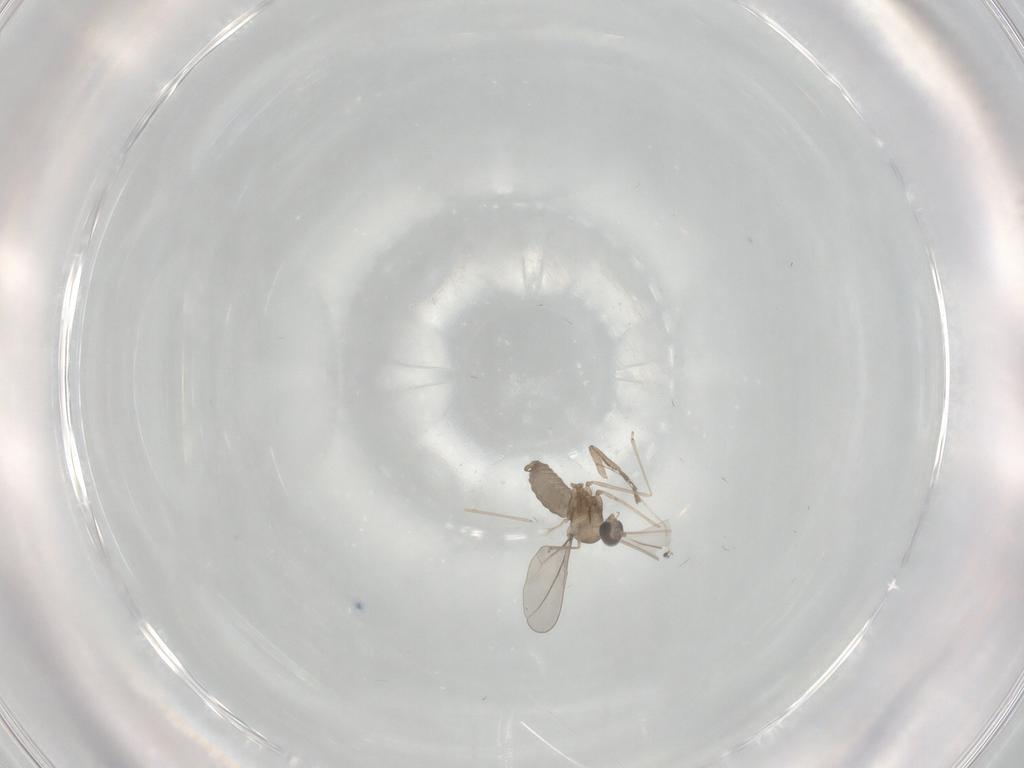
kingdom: Animalia
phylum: Arthropoda
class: Insecta
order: Diptera
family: Cecidomyiidae
